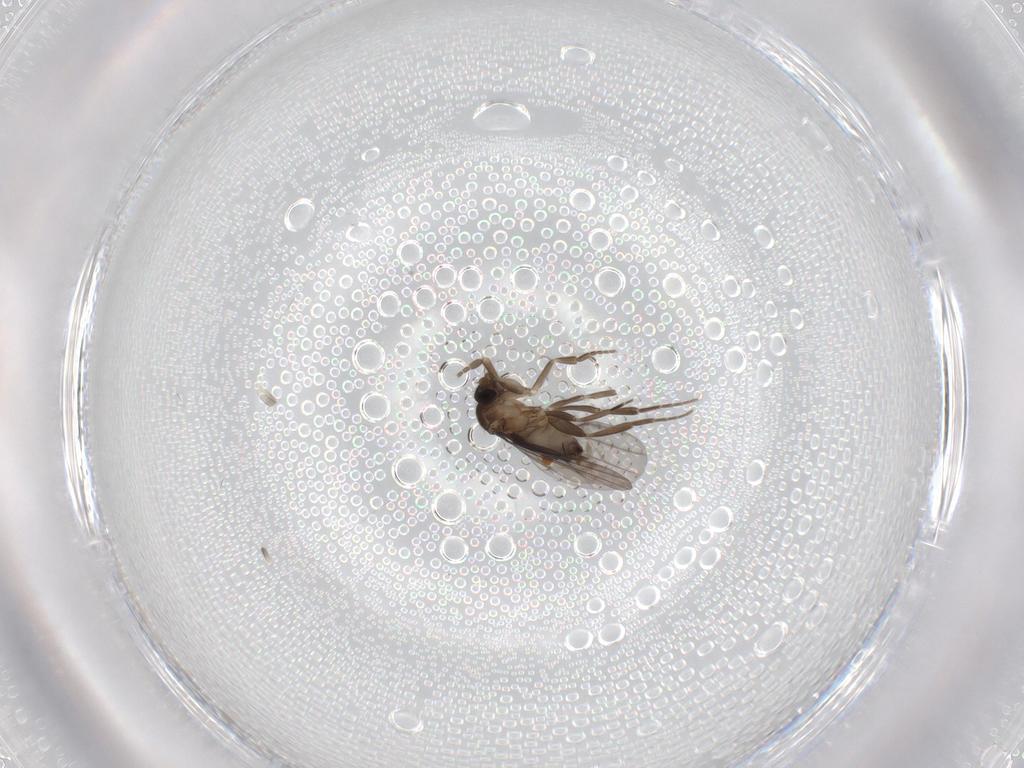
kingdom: Animalia
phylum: Arthropoda
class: Insecta
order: Diptera
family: Phoridae
